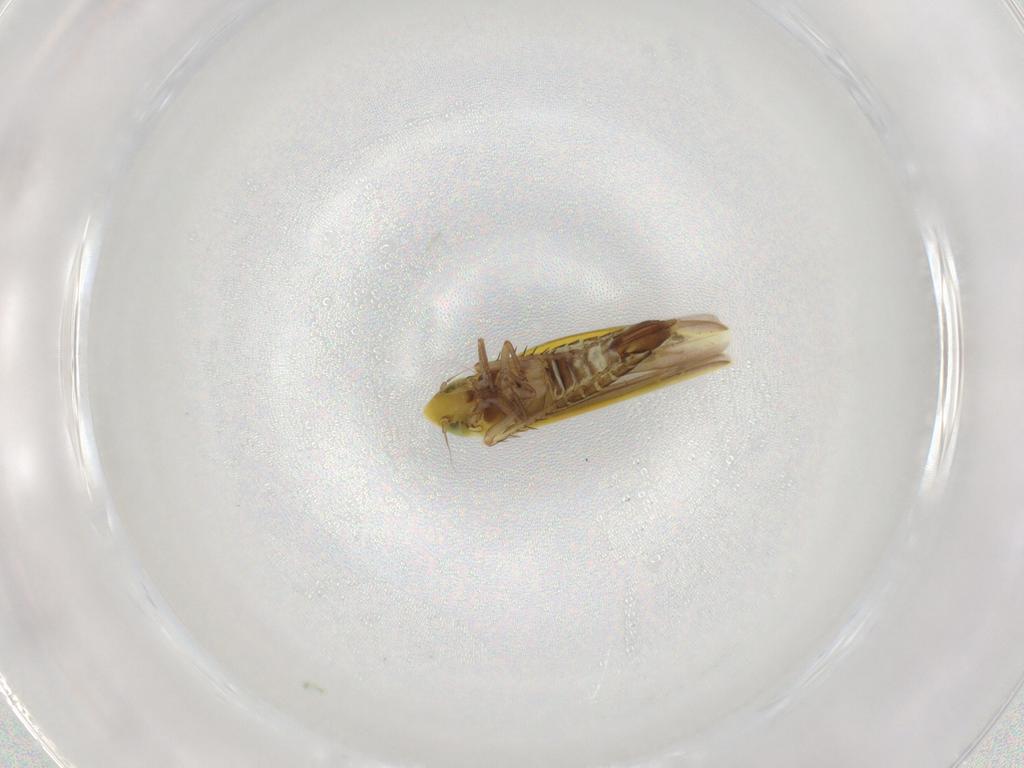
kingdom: Animalia
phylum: Arthropoda
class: Insecta
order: Hemiptera
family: Cicadellidae
